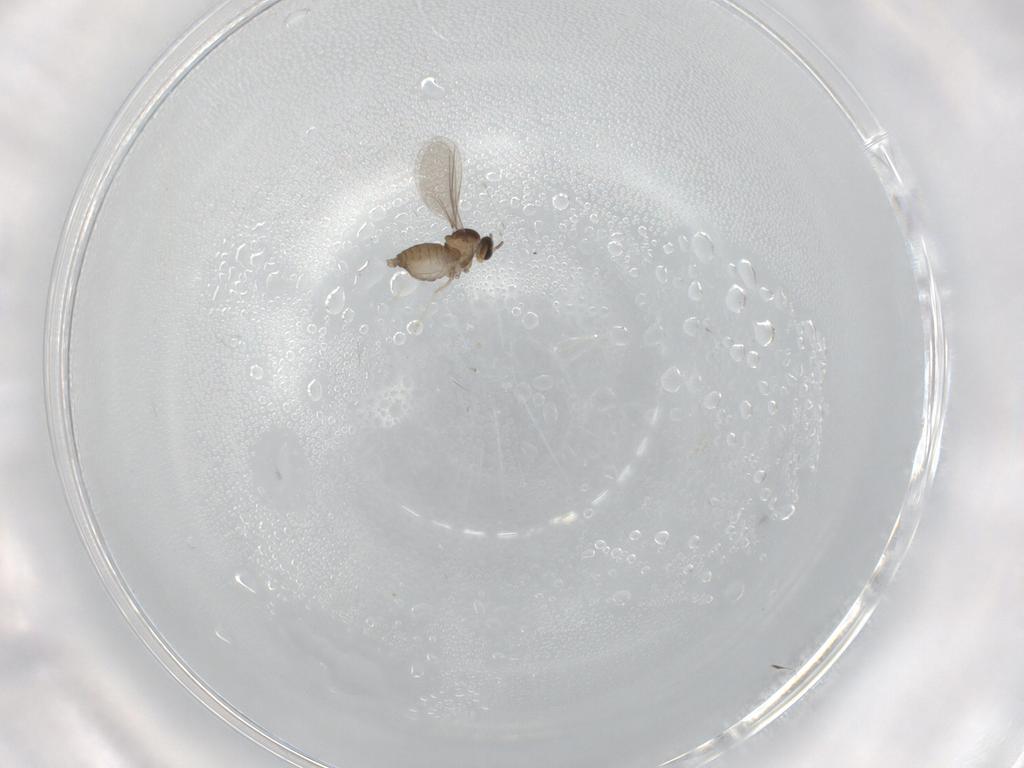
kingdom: Animalia
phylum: Arthropoda
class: Insecta
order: Diptera
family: Cecidomyiidae
